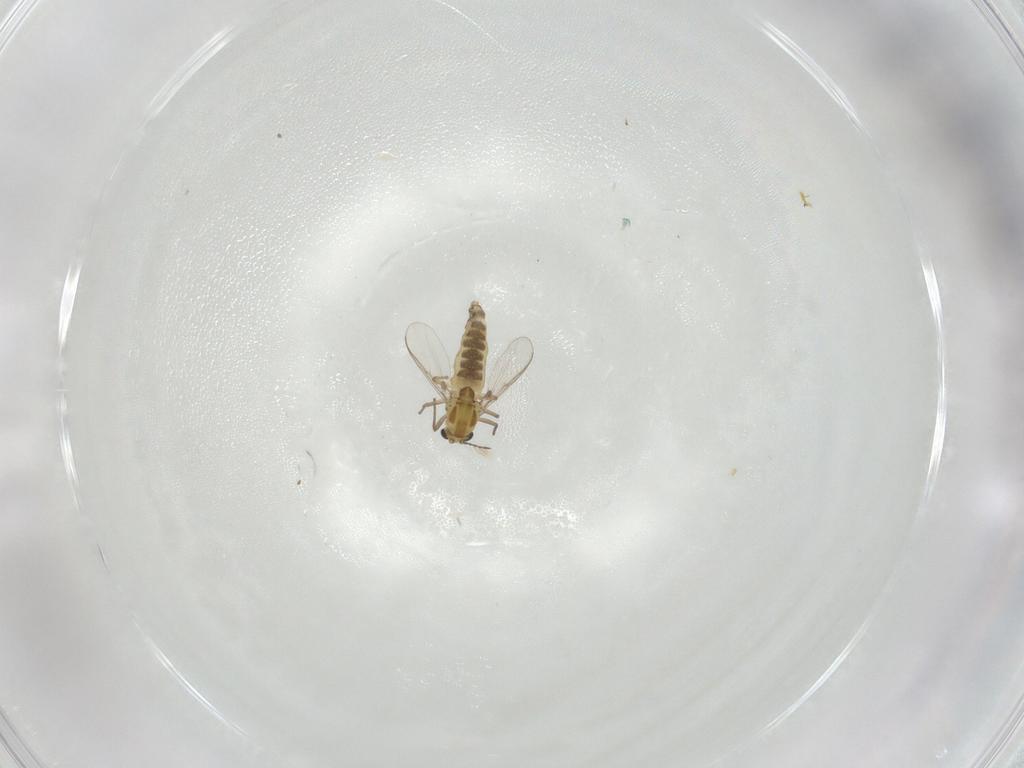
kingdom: Animalia
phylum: Arthropoda
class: Insecta
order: Diptera
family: Chironomidae
